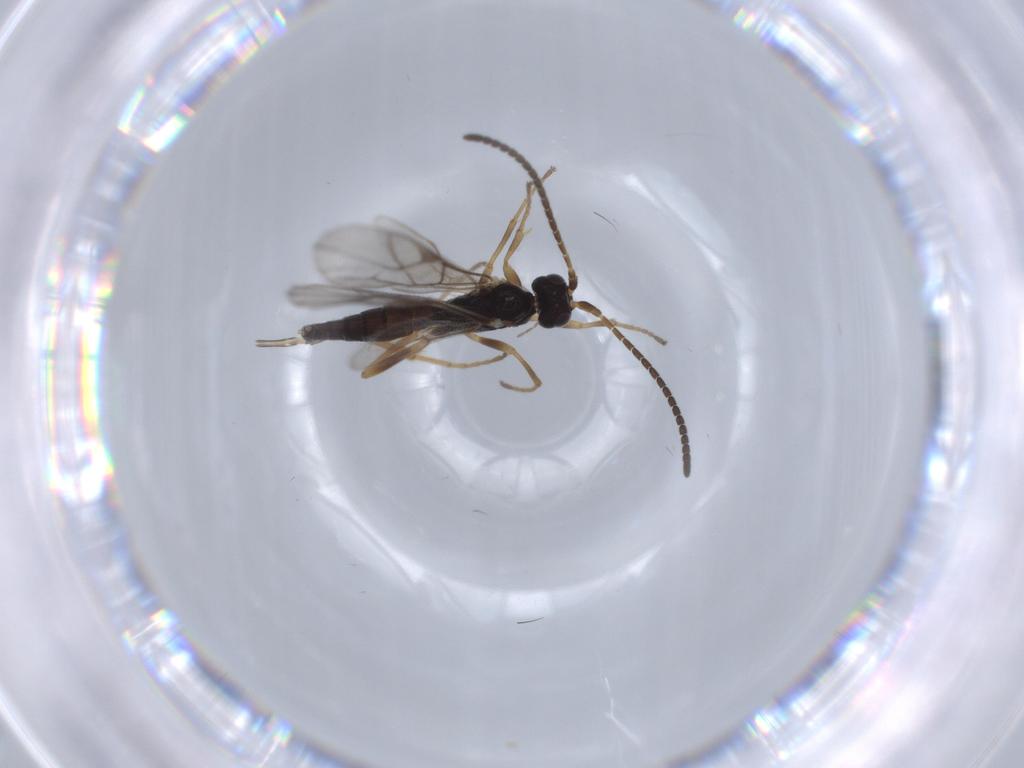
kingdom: Animalia
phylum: Arthropoda
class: Insecta
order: Hymenoptera
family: Ichneumonidae
